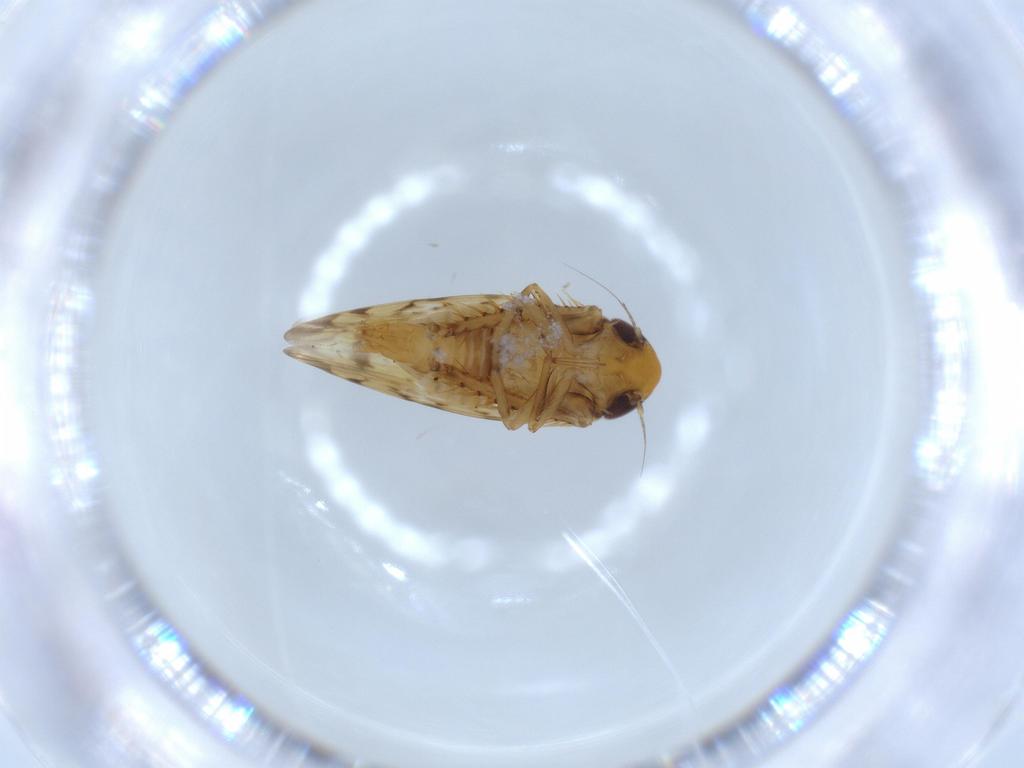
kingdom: Animalia
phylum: Arthropoda
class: Insecta
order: Hemiptera
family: Cicadellidae
